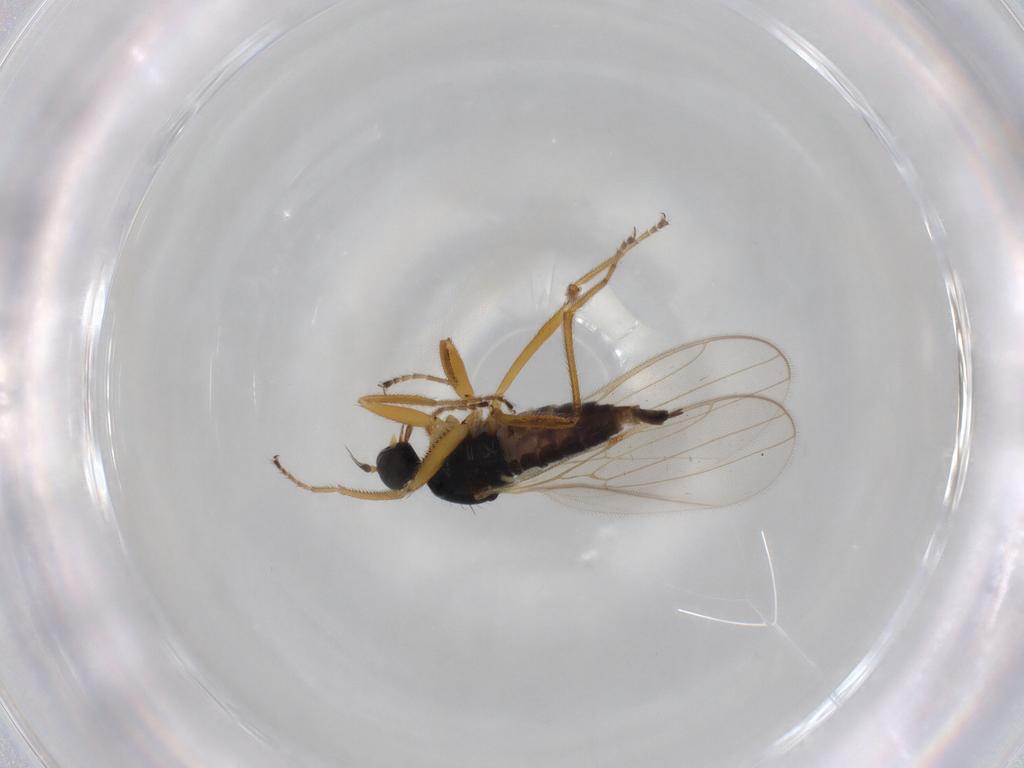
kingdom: Animalia
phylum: Arthropoda
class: Insecta
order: Diptera
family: Hybotidae
